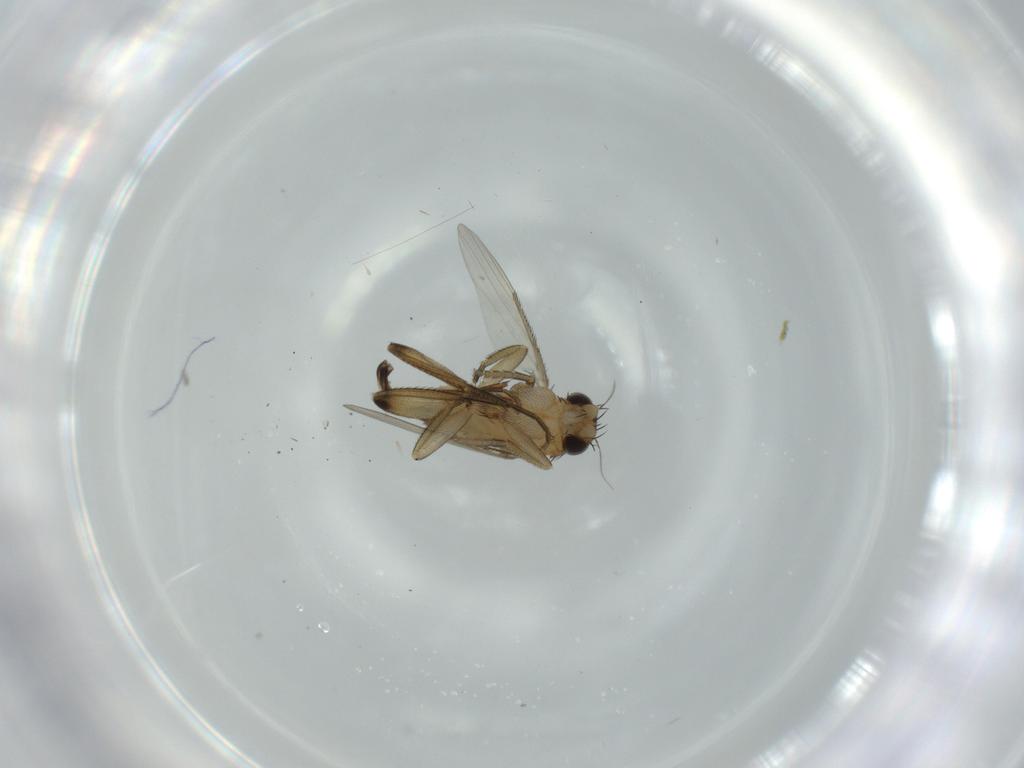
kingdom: Animalia
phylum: Arthropoda
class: Insecta
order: Diptera
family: Phoridae
